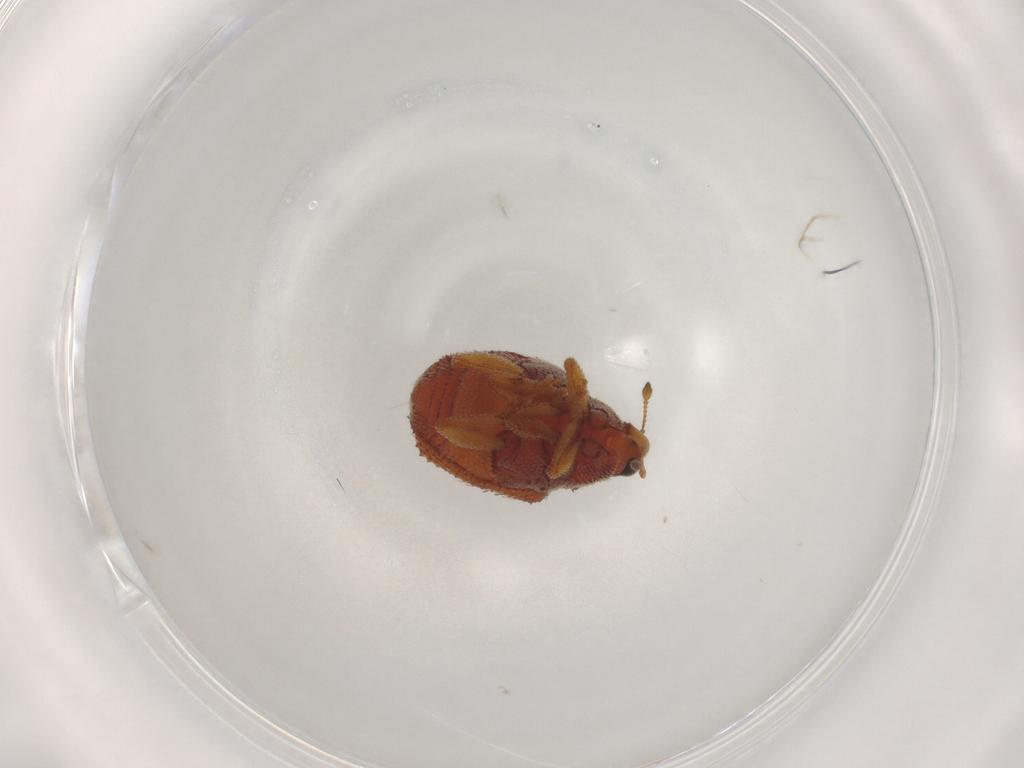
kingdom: Animalia
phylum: Arthropoda
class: Insecta
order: Coleoptera
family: Curculionidae
